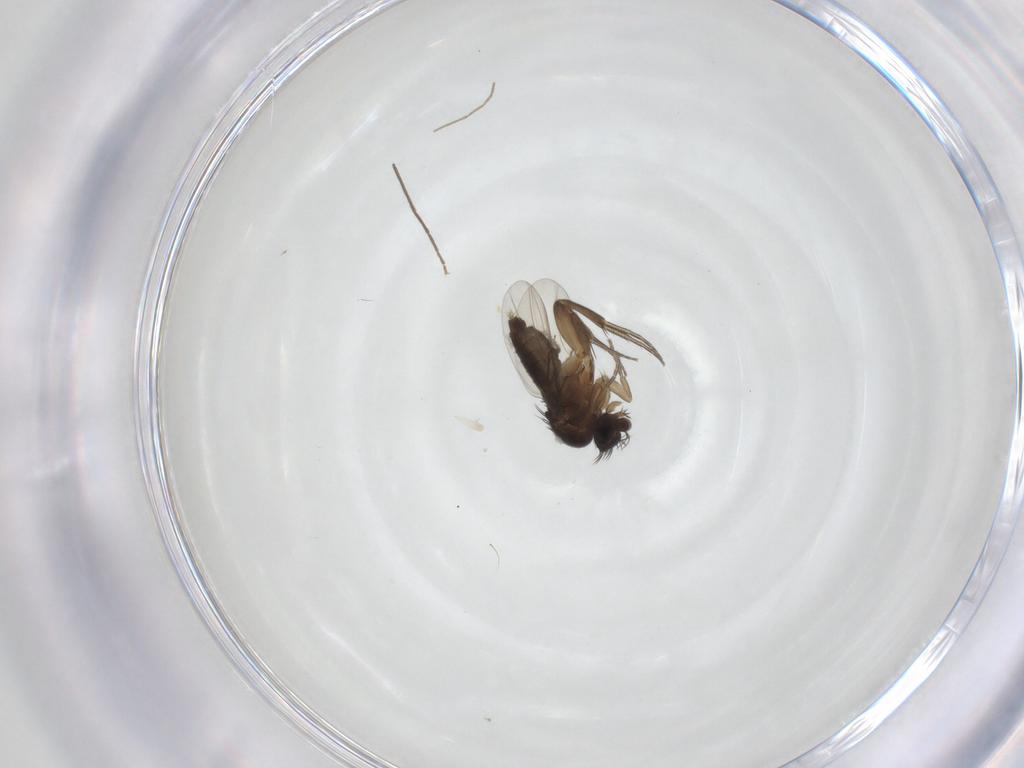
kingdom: Animalia
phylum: Arthropoda
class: Insecta
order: Diptera
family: Phoridae
